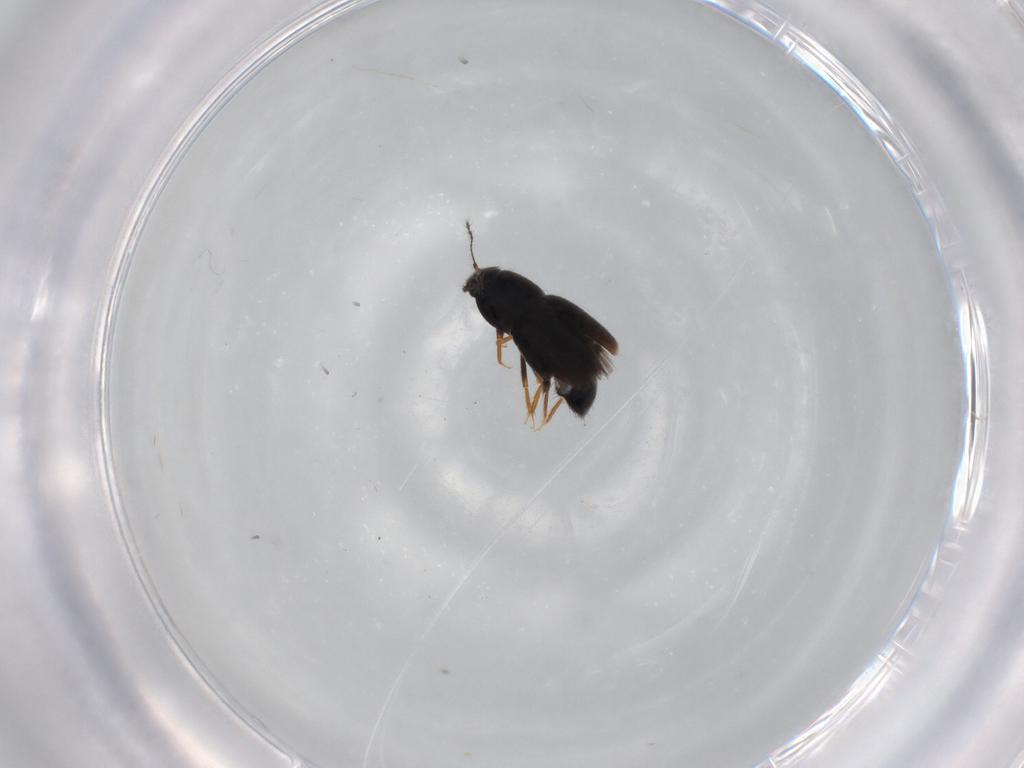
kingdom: Animalia
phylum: Arthropoda
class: Insecta
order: Coleoptera
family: Ptiliidae
